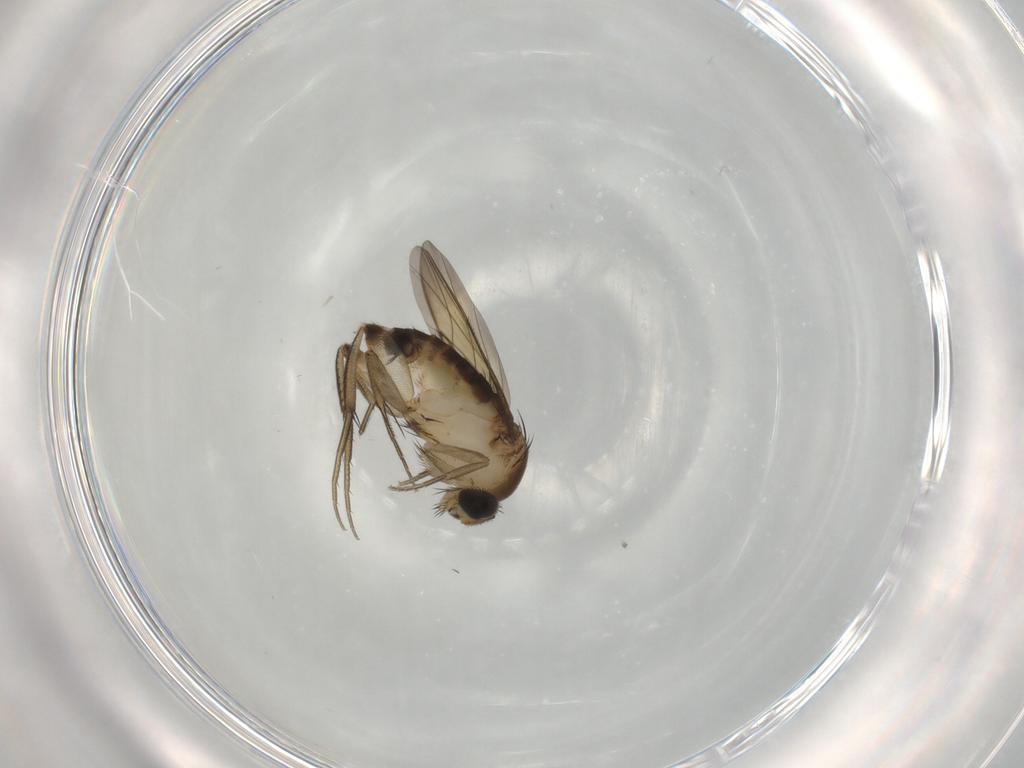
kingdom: Animalia
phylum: Arthropoda
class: Insecta
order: Diptera
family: Phoridae
